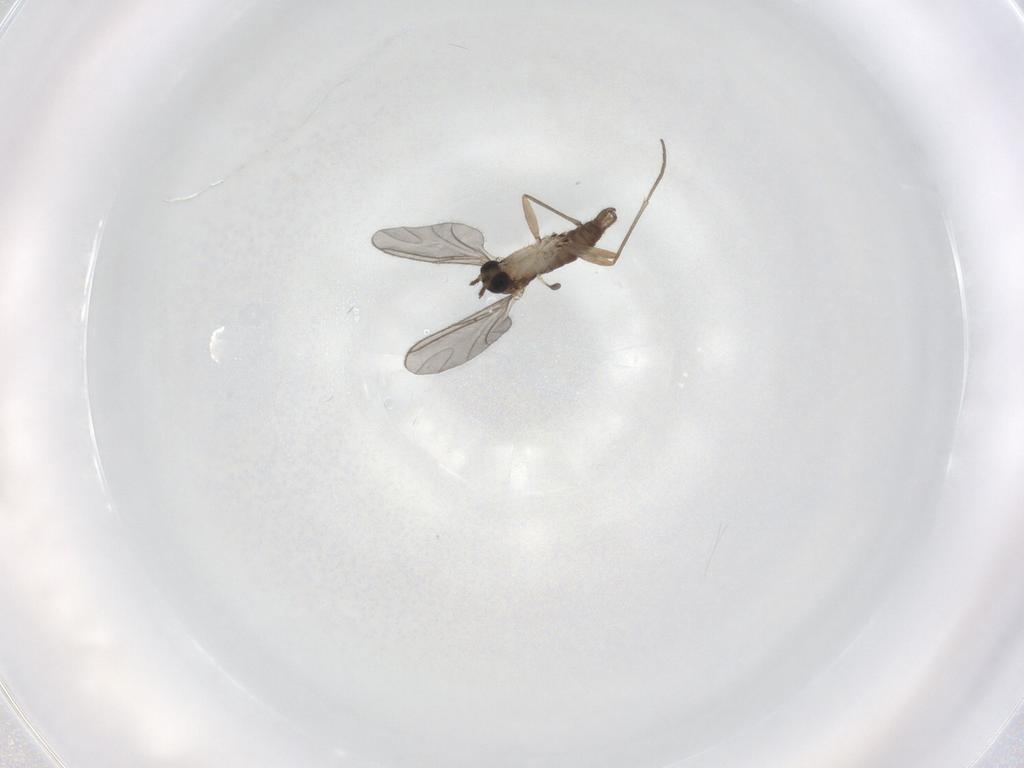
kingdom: Animalia
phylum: Arthropoda
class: Insecta
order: Diptera
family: Sciaridae
